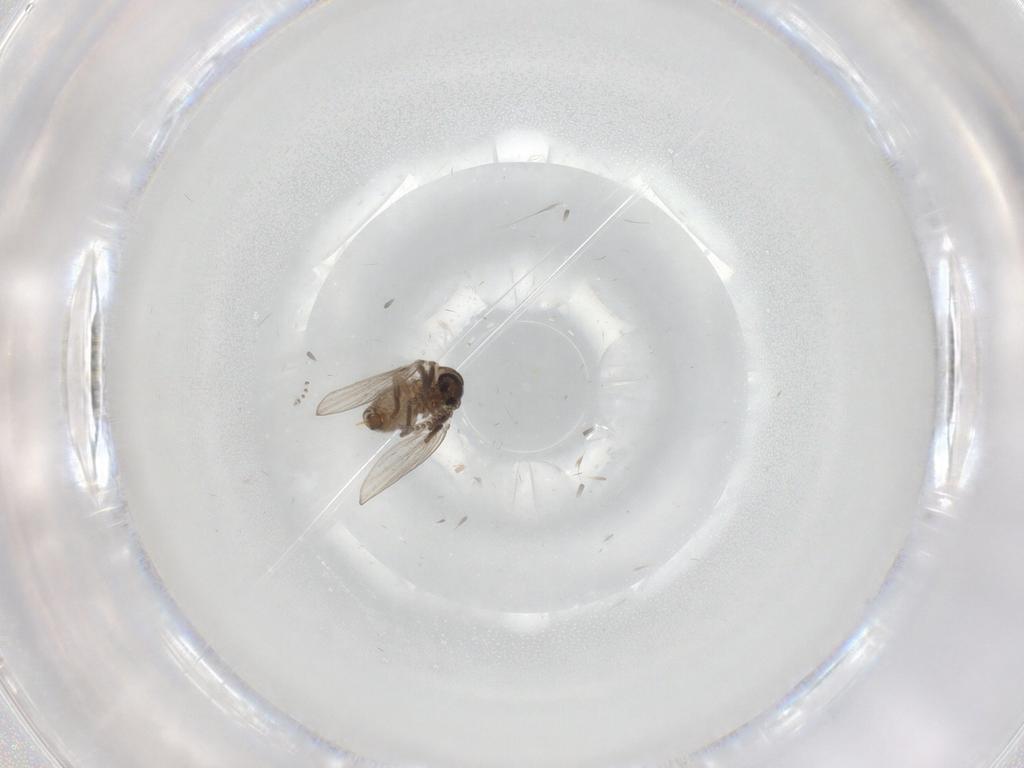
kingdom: Animalia
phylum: Arthropoda
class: Insecta
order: Diptera
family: Psychodidae
